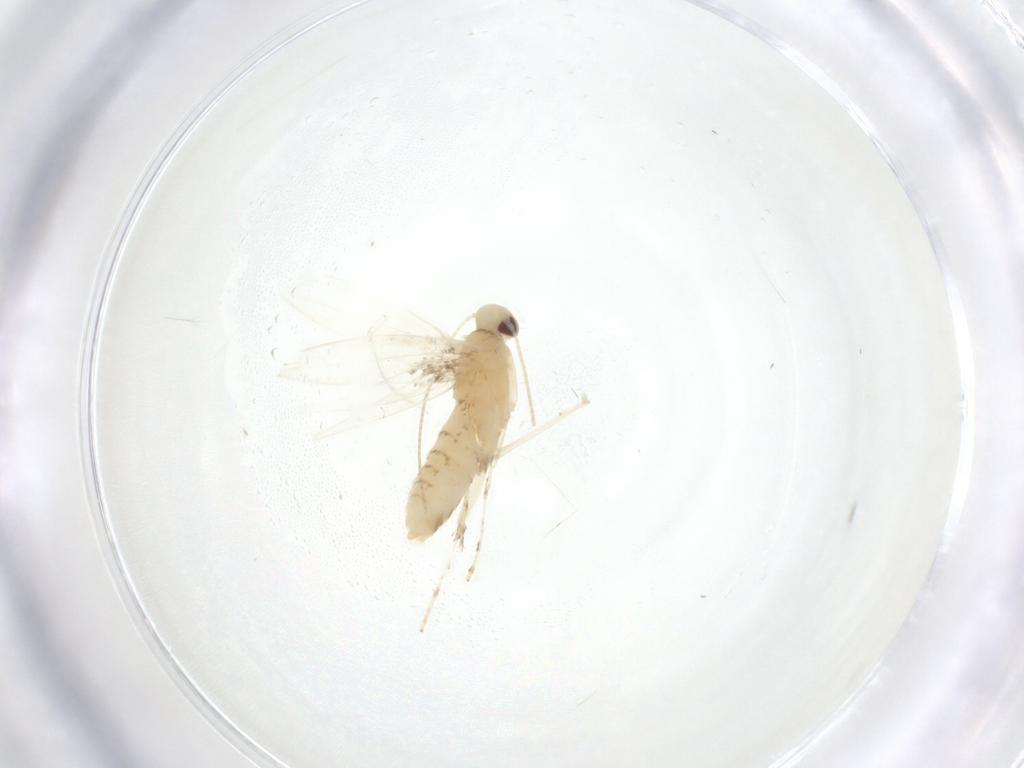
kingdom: Animalia
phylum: Arthropoda
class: Insecta
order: Lepidoptera
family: Gracillariidae
